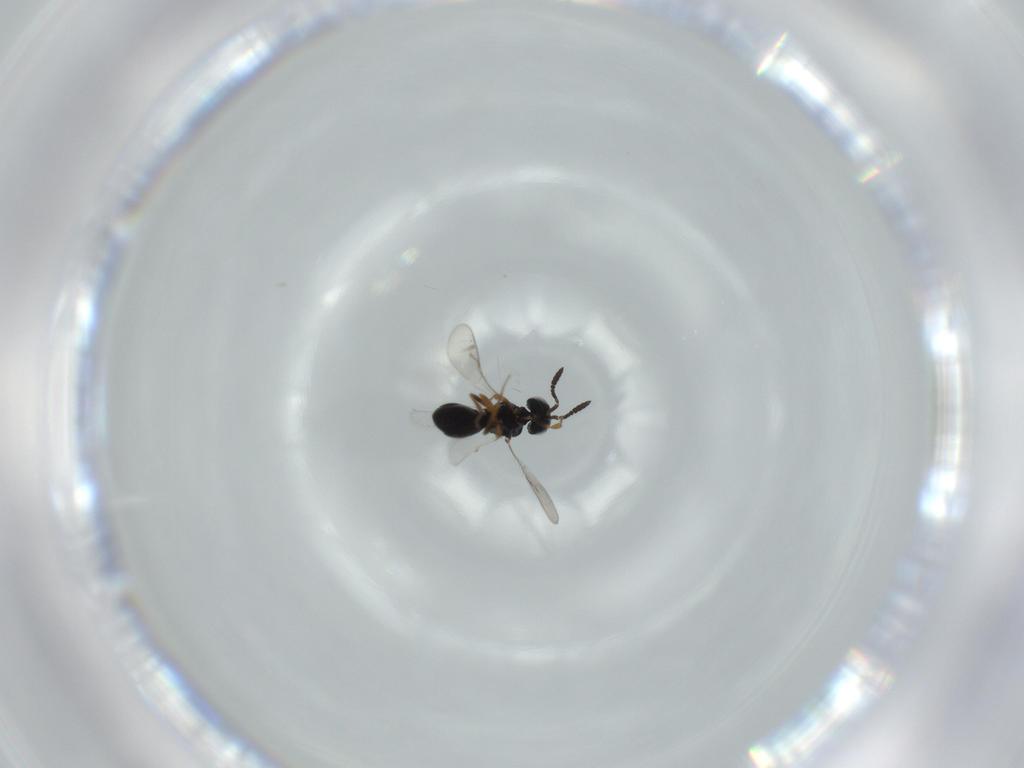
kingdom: Animalia
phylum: Arthropoda
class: Insecta
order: Hymenoptera
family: Scelionidae
